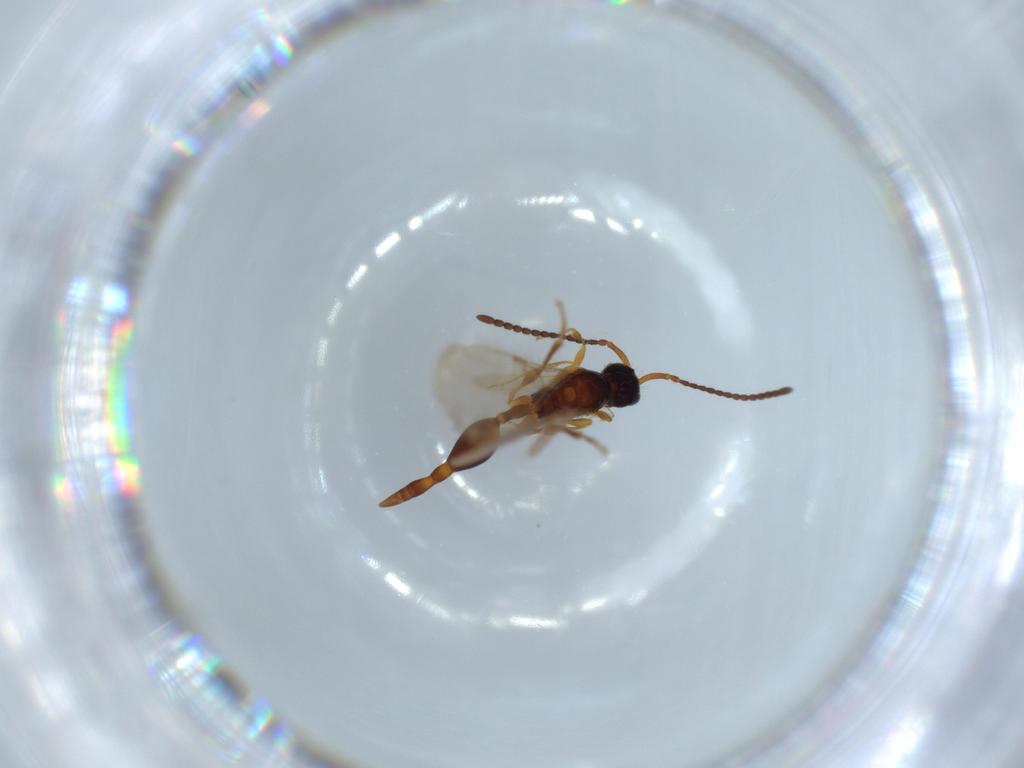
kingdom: Animalia
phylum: Arthropoda
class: Insecta
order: Hymenoptera
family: Diapriidae
